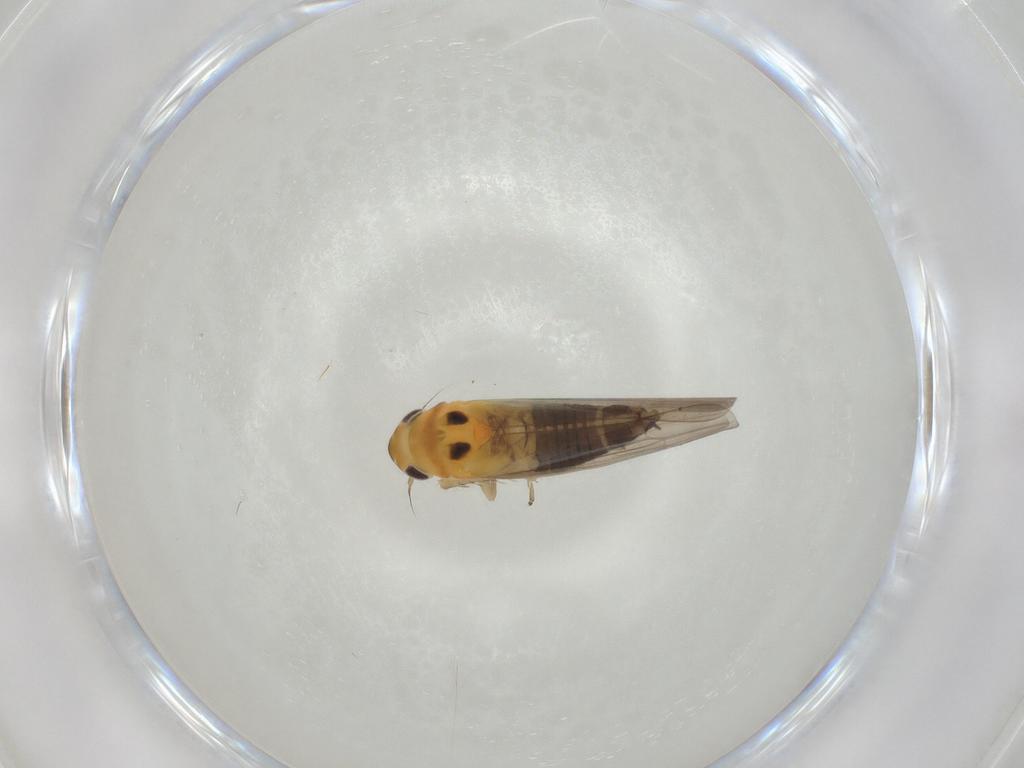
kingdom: Animalia
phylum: Arthropoda
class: Insecta
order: Hemiptera
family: Cicadellidae
